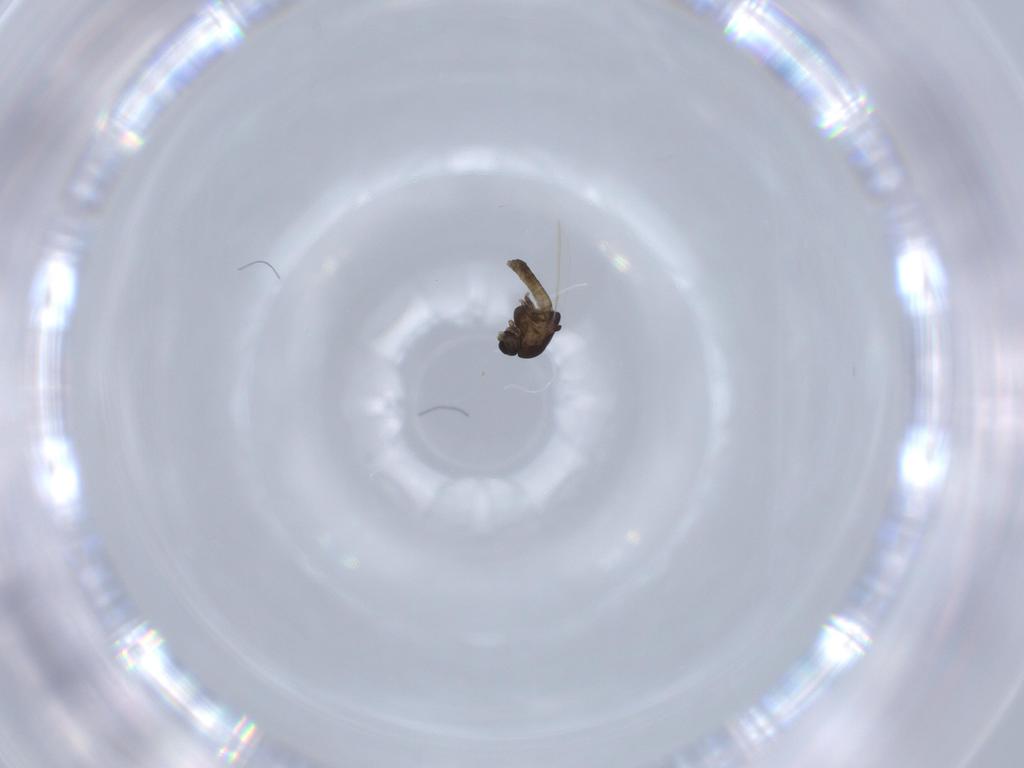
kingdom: Animalia
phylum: Arthropoda
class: Insecta
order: Diptera
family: Chironomidae
